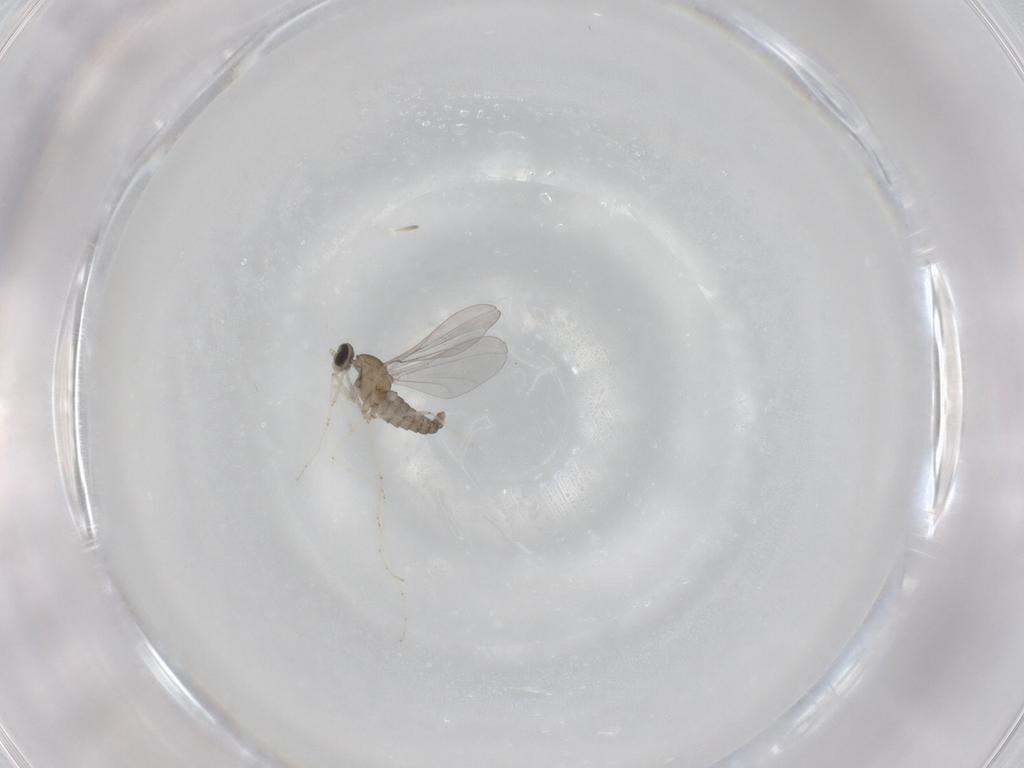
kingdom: Animalia
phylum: Arthropoda
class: Insecta
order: Diptera
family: Cecidomyiidae
